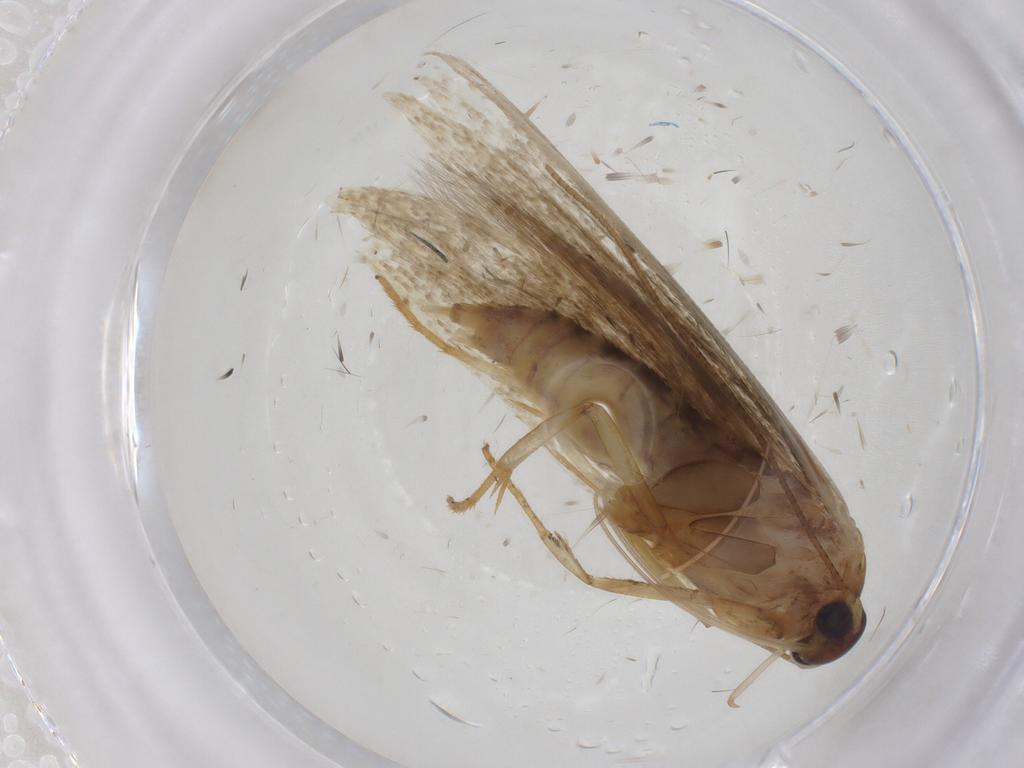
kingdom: Animalia
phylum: Arthropoda
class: Insecta
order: Lepidoptera
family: Blastobasidae
